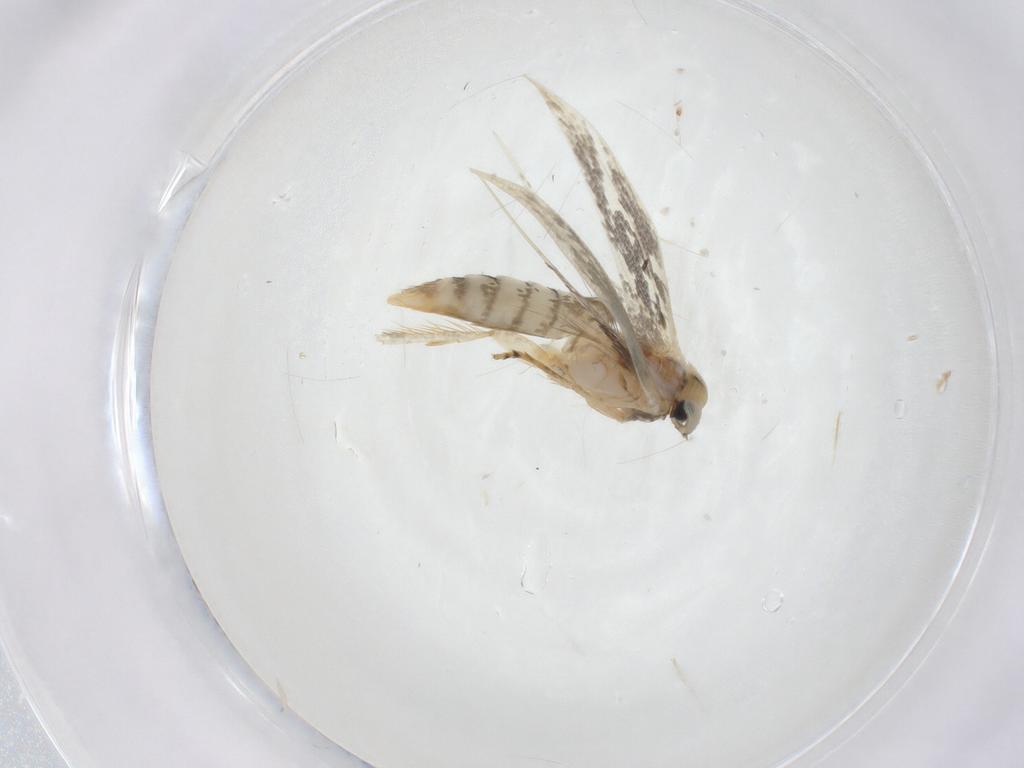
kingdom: Animalia
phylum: Arthropoda
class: Insecta
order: Lepidoptera
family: Opostegidae
